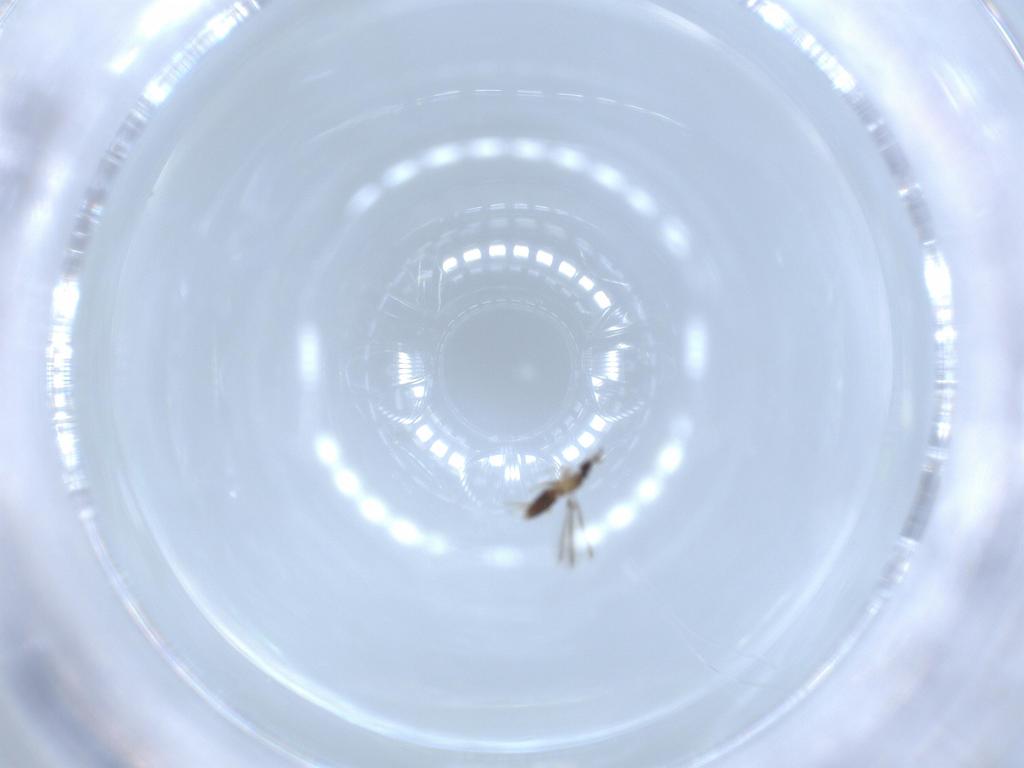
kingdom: Animalia
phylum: Arthropoda
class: Insecta
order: Hymenoptera
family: Mymaridae
